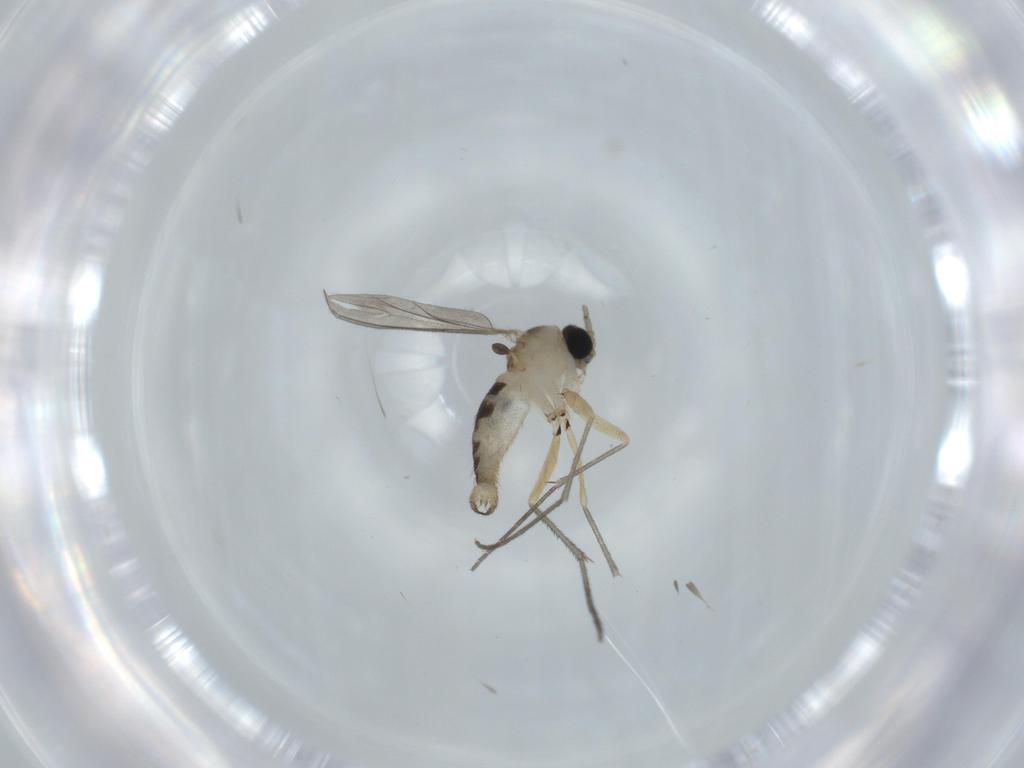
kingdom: Animalia
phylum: Arthropoda
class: Insecta
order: Diptera
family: Sciaridae
